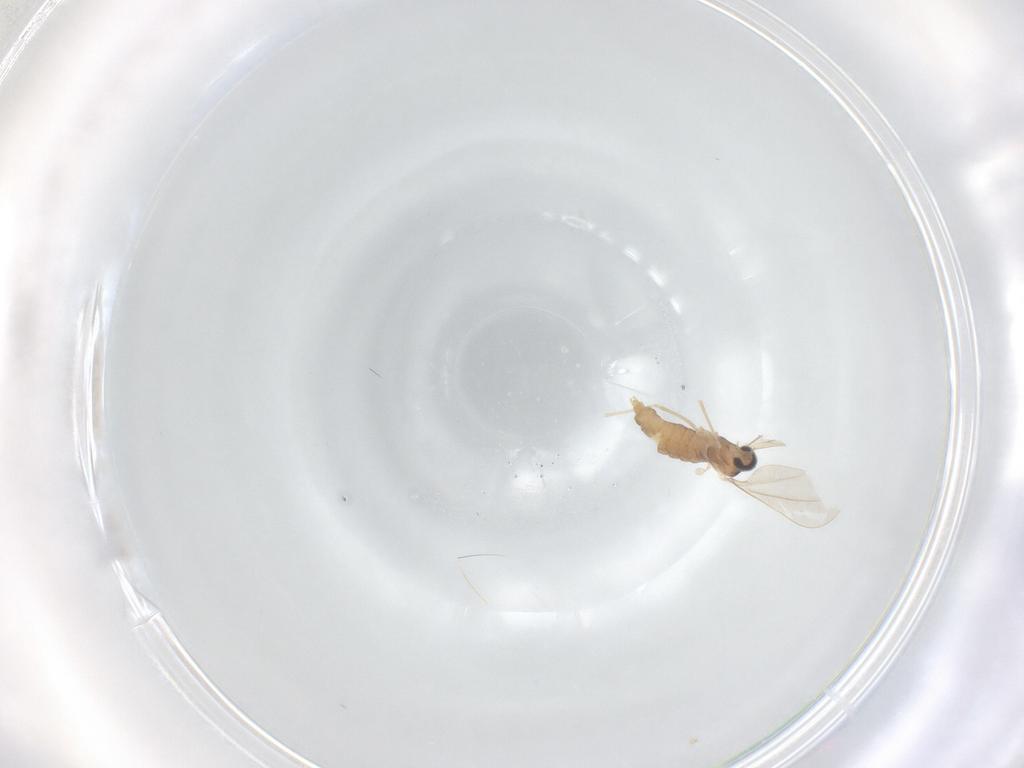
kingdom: Animalia
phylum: Arthropoda
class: Insecta
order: Diptera
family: Cecidomyiidae
